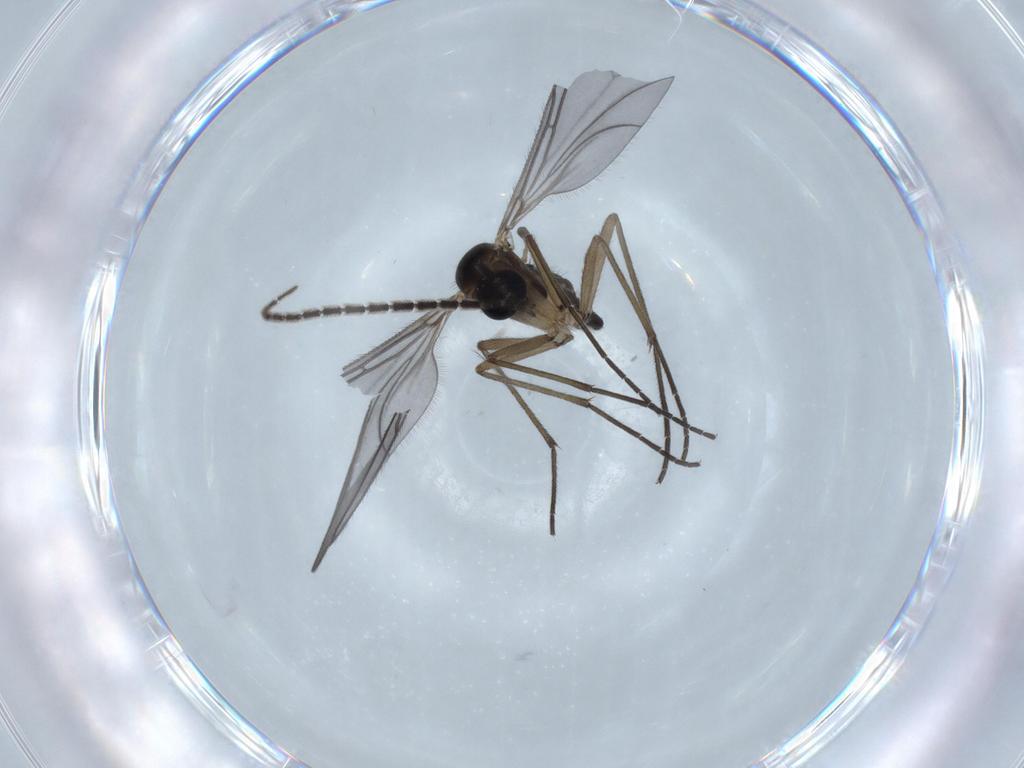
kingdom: Animalia
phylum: Arthropoda
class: Insecta
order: Diptera
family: Sciaridae
